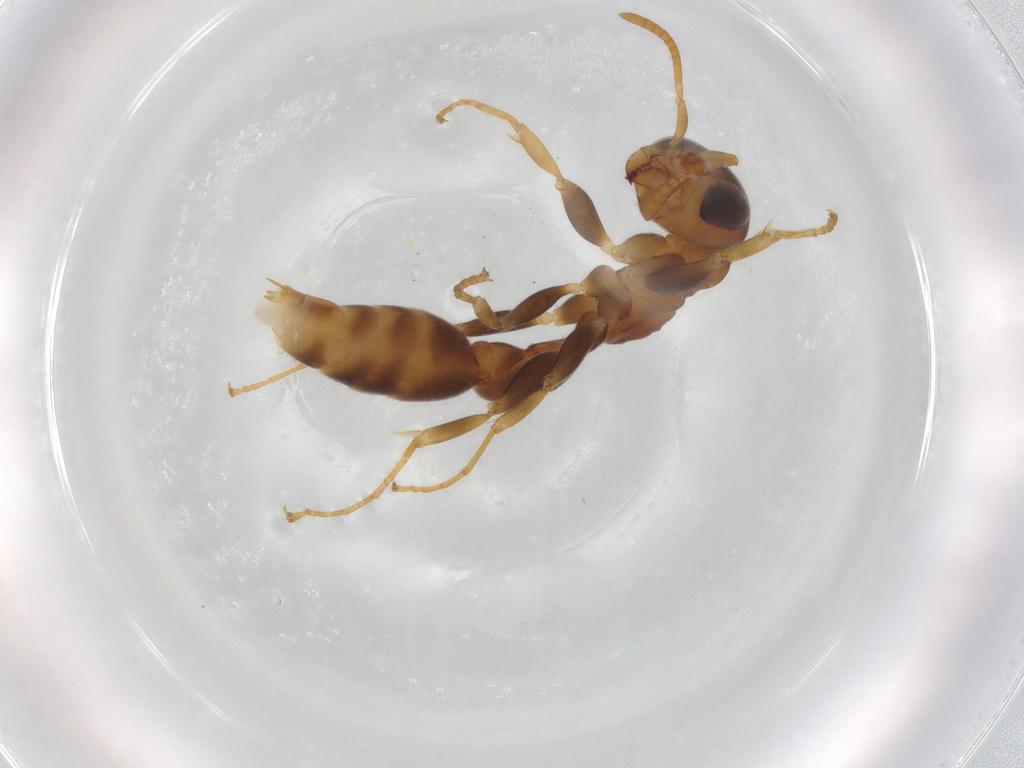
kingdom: Animalia
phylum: Arthropoda
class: Insecta
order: Hymenoptera
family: Formicidae
